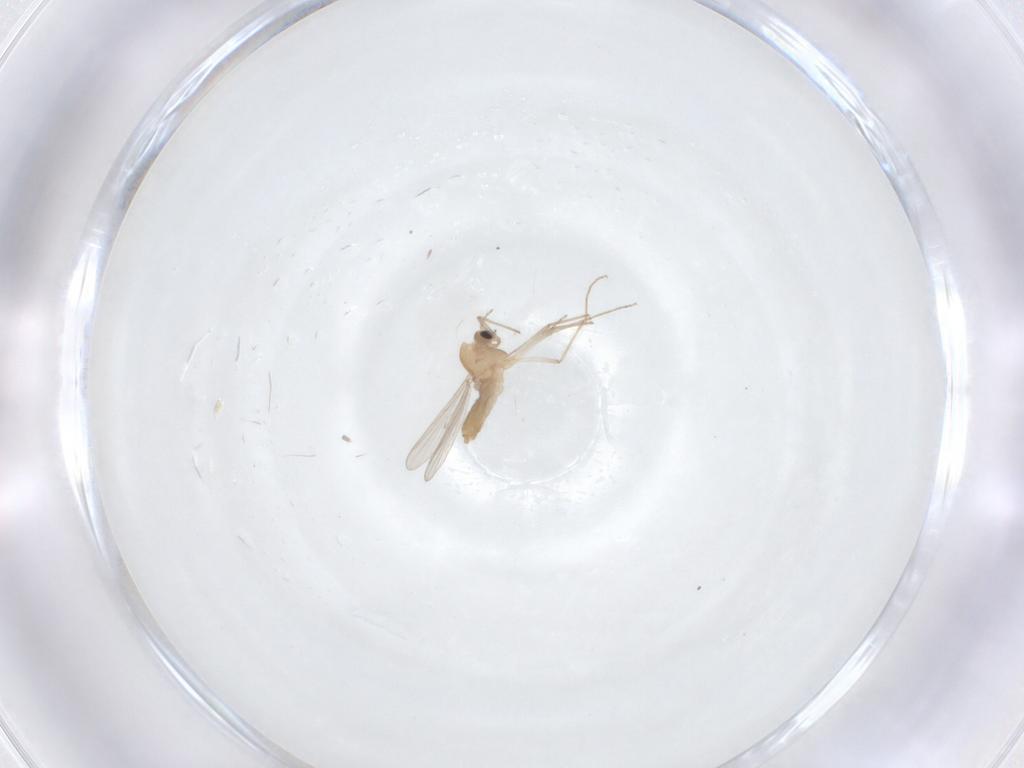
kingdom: Animalia
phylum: Arthropoda
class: Insecta
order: Diptera
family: Chironomidae
